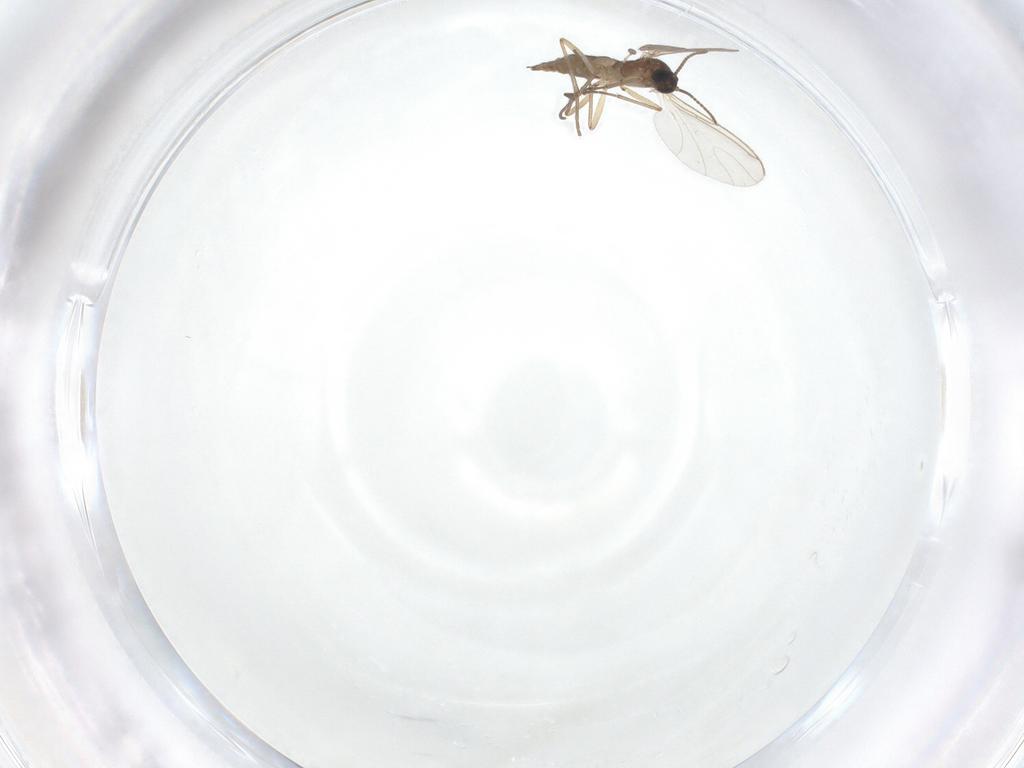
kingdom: Animalia
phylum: Arthropoda
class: Insecta
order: Diptera
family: Sciaridae
